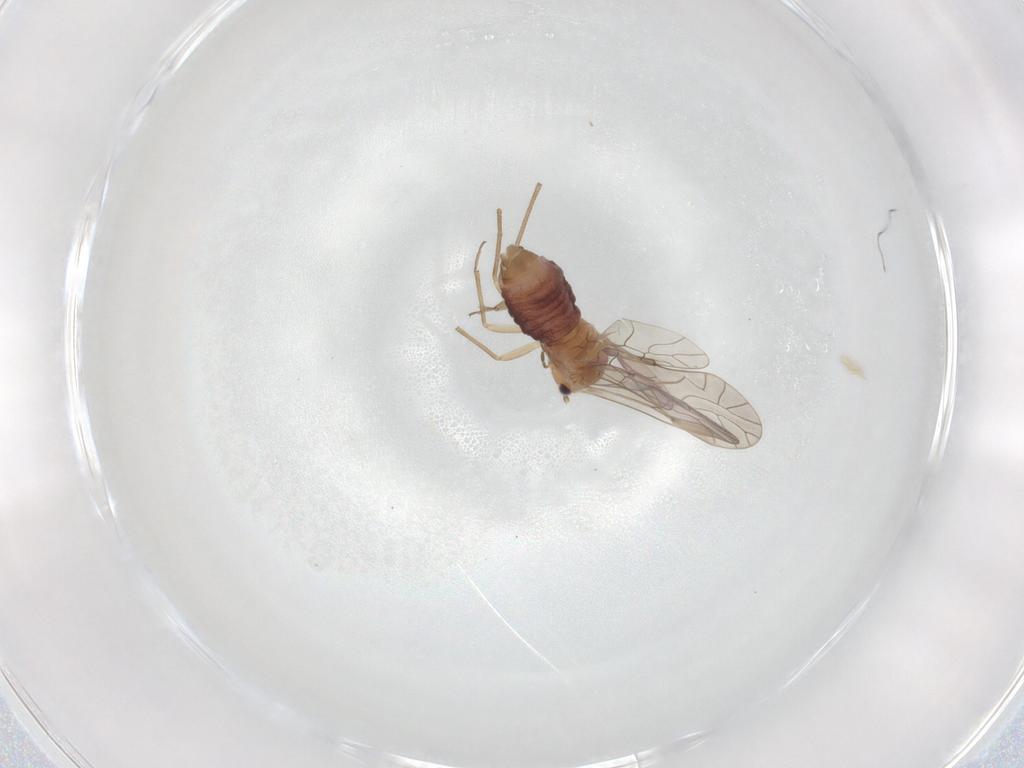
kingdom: Animalia
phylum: Arthropoda
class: Insecta
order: Psocodea
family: Lachesillidae
